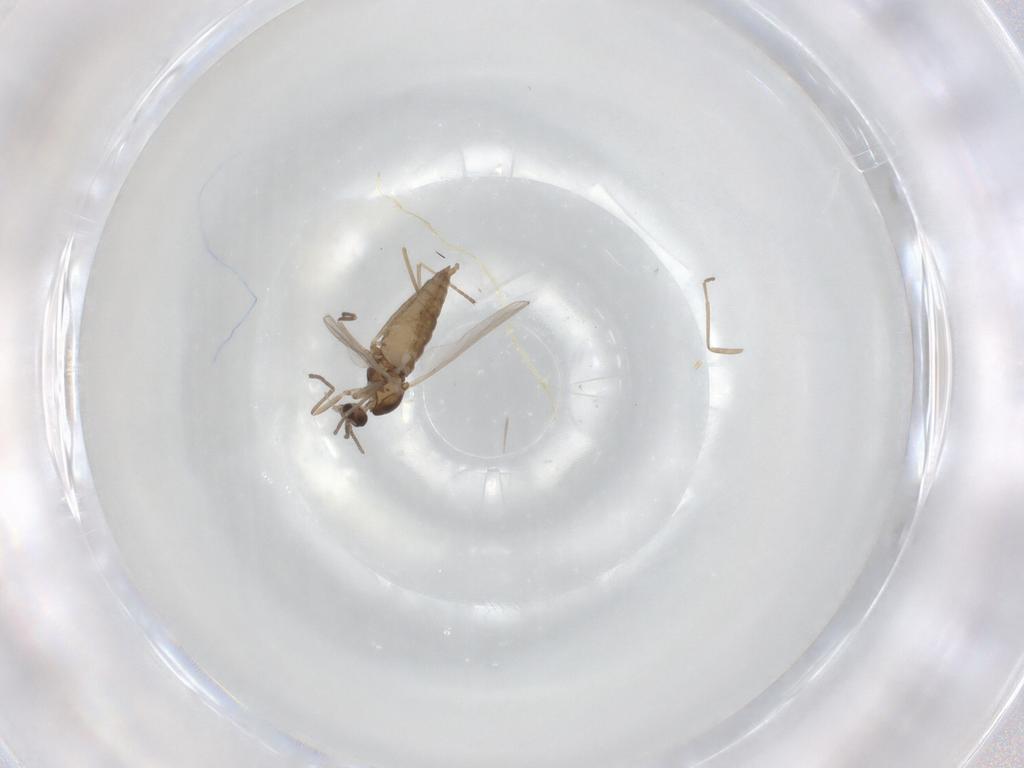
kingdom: Animalia
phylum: Arthropoda
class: Insecta
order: Diptera
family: Cecidomyiidae
